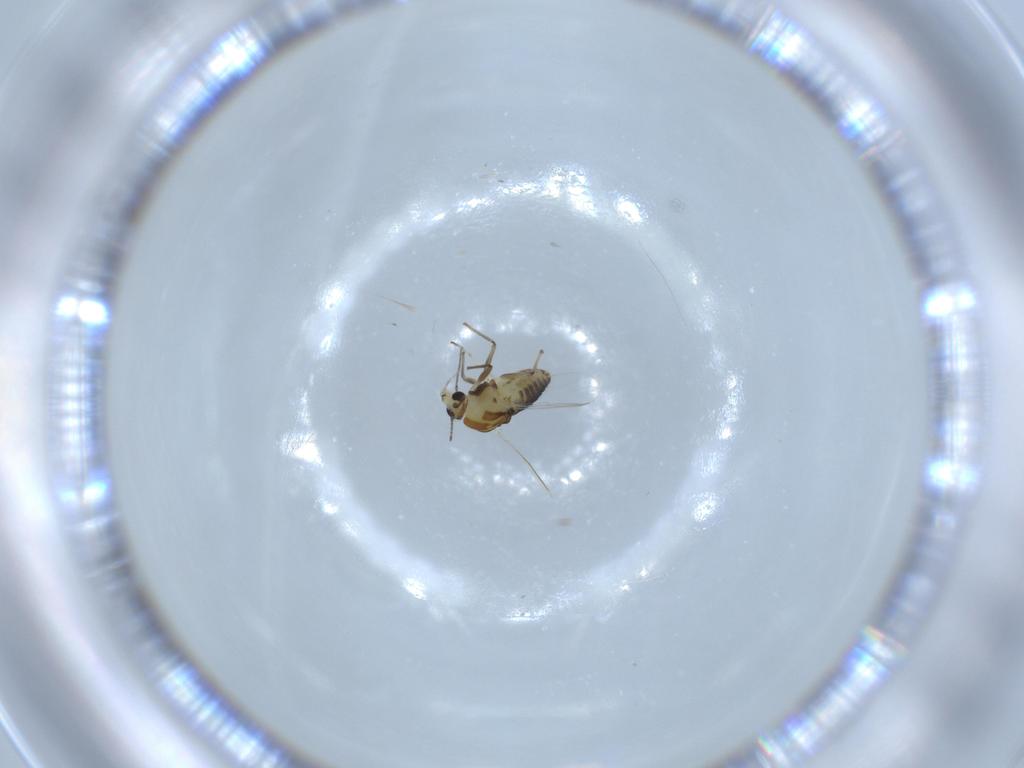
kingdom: Animalia
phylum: Arthropoda
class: Insecta
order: Diptera
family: Chironomidae
